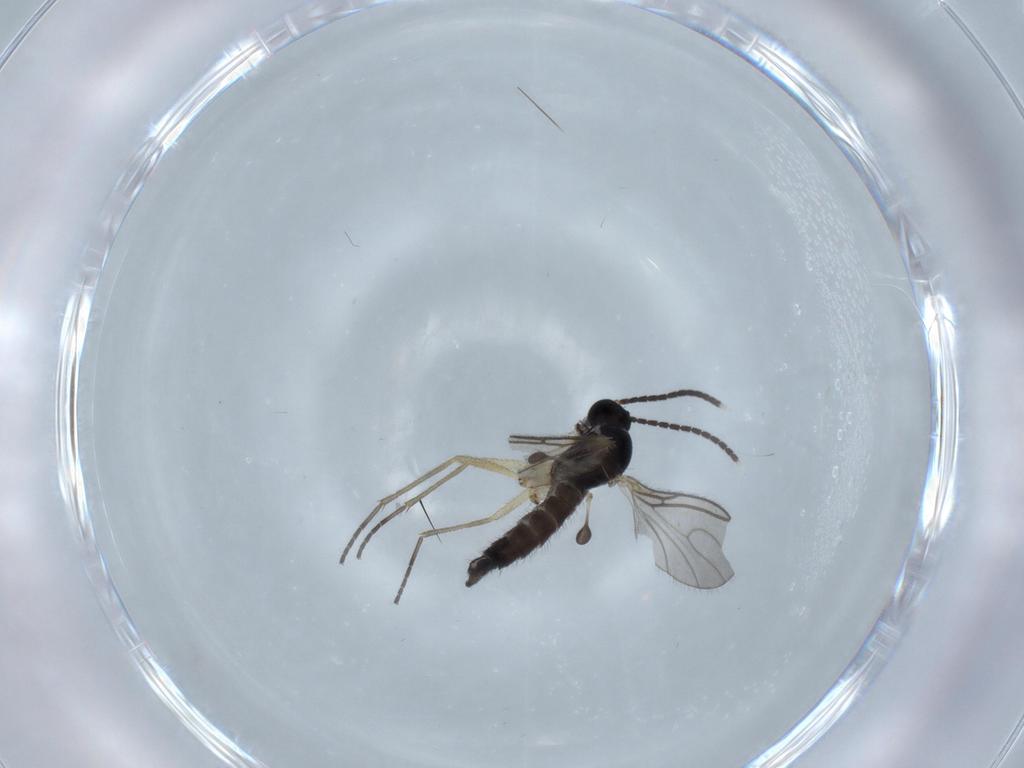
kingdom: Animalia
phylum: Arthropoda
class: Insecta
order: Diptera
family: Sciaridae
